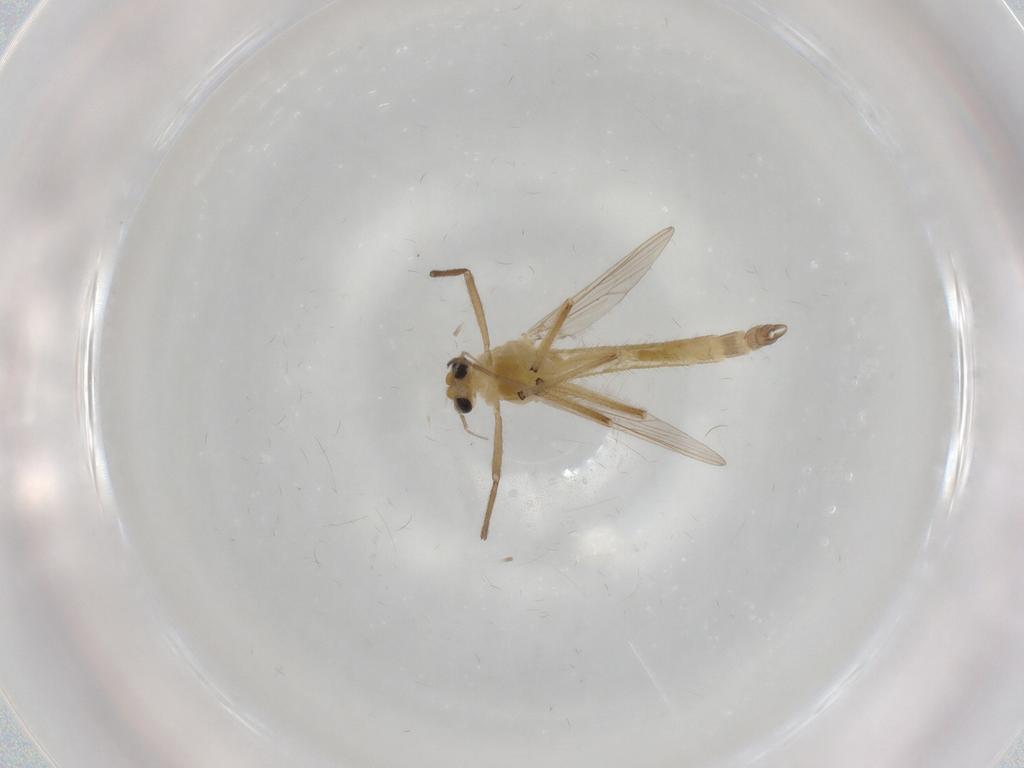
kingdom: Animalia
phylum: Arthropoda
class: Insecta
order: Diptera
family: Chironomidae
